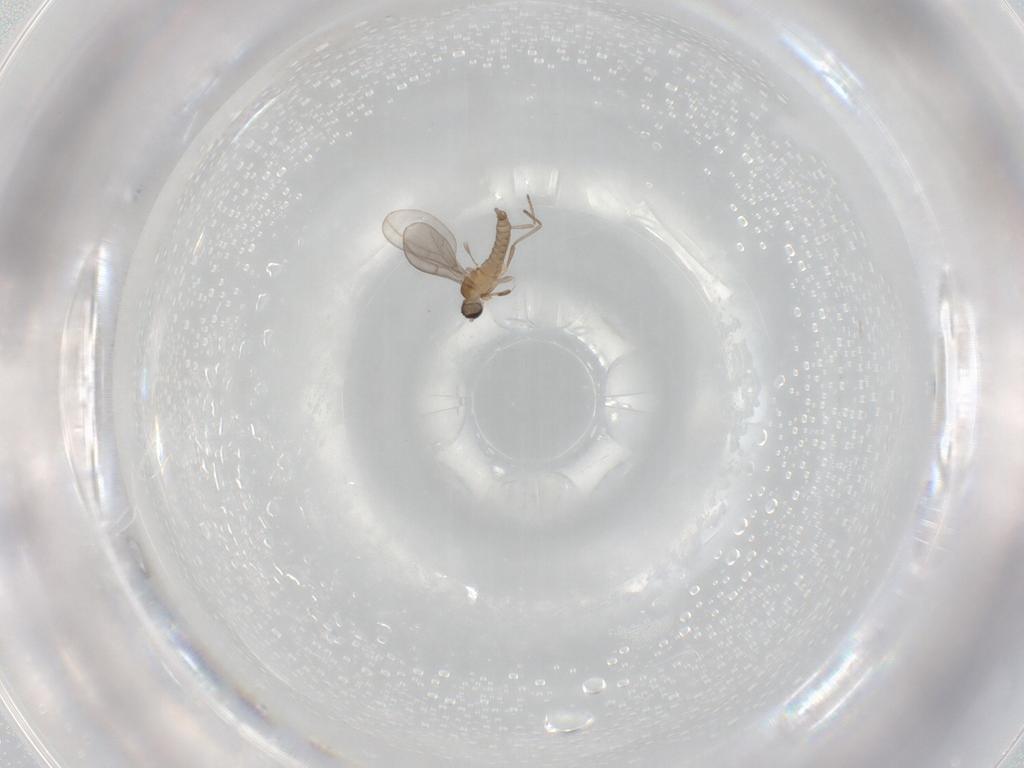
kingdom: Animalia
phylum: Arthropoda
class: Insecta
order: Diptera
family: Cecidomyiidae
